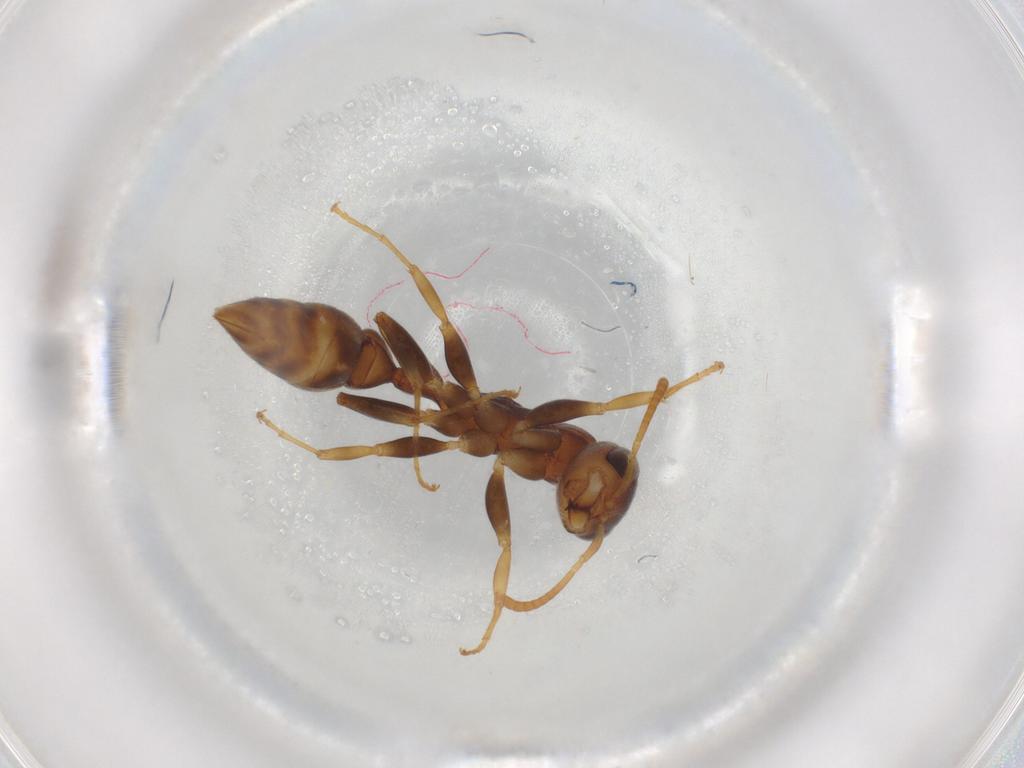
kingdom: Animalia
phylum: Arthropoda
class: Insecta
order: Hymenoptera
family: Formicidae
